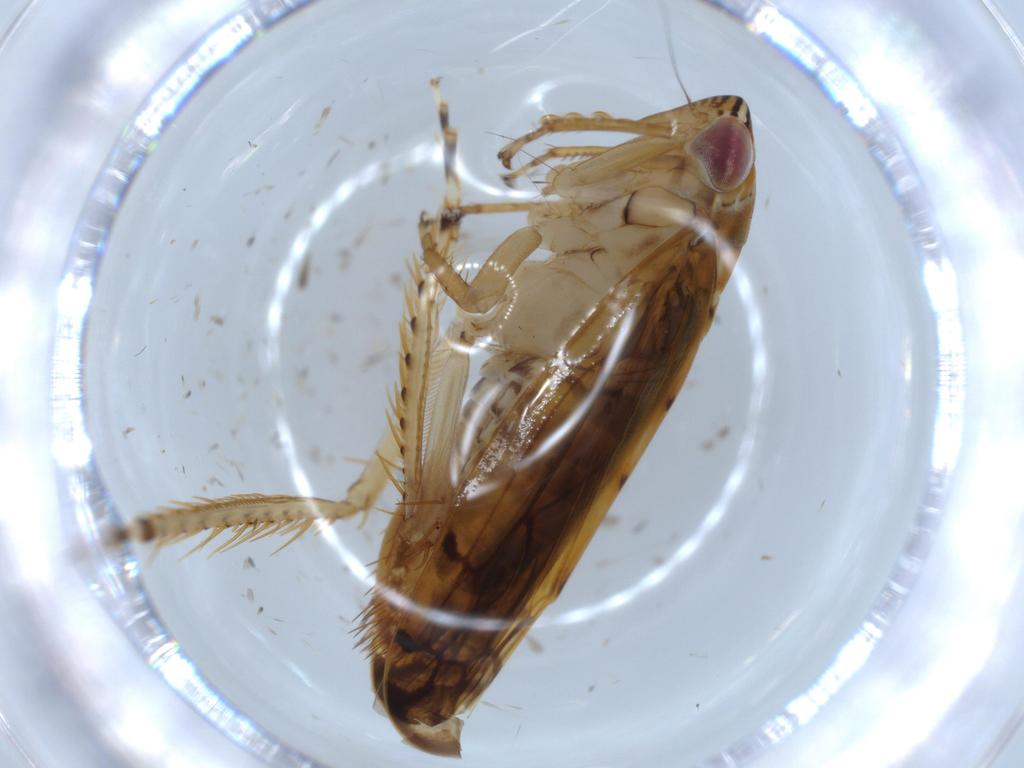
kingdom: Animalia
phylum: Arthropoda
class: Insecta
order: Hemiptera
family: Cicadellidae
